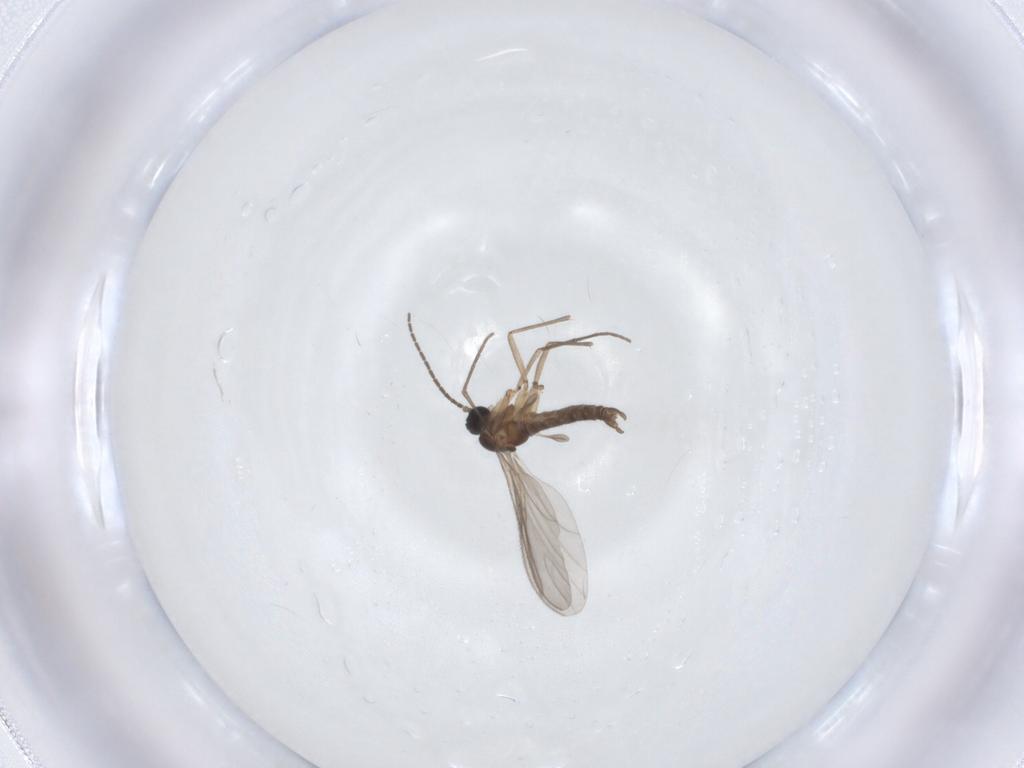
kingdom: Animalia
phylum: Arthropoda
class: Insecta
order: Diptera
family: Sciaridae
